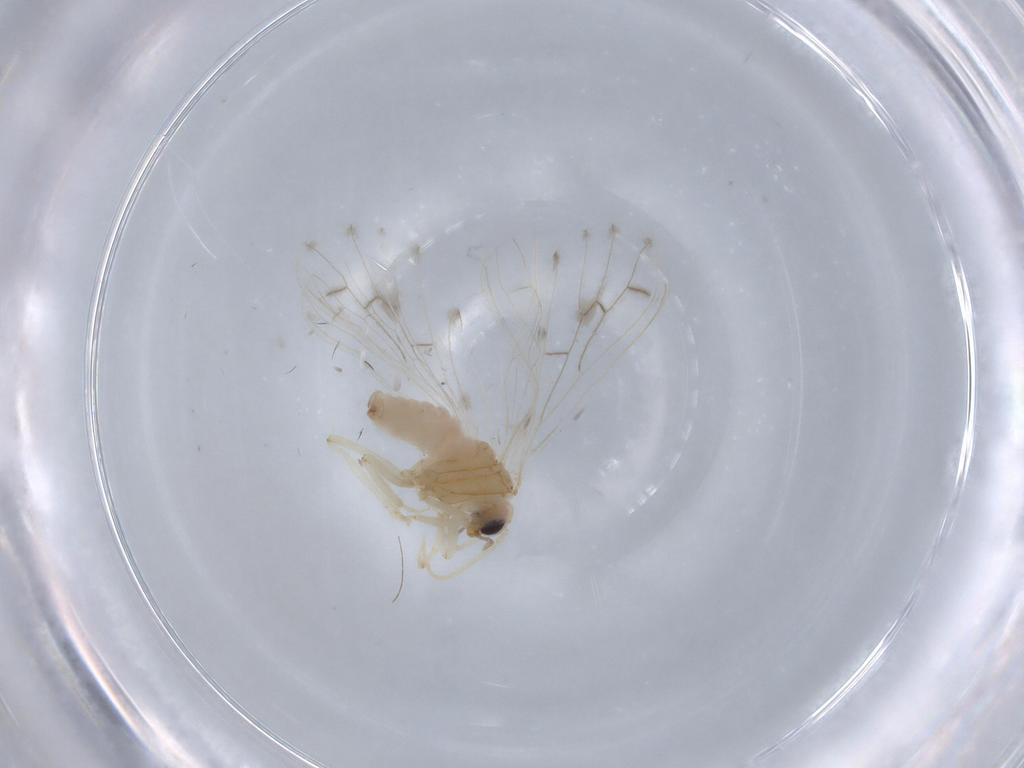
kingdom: Animalia
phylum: Arthropoda
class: Insecta
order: Neuroptera
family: Coniopterygidae
